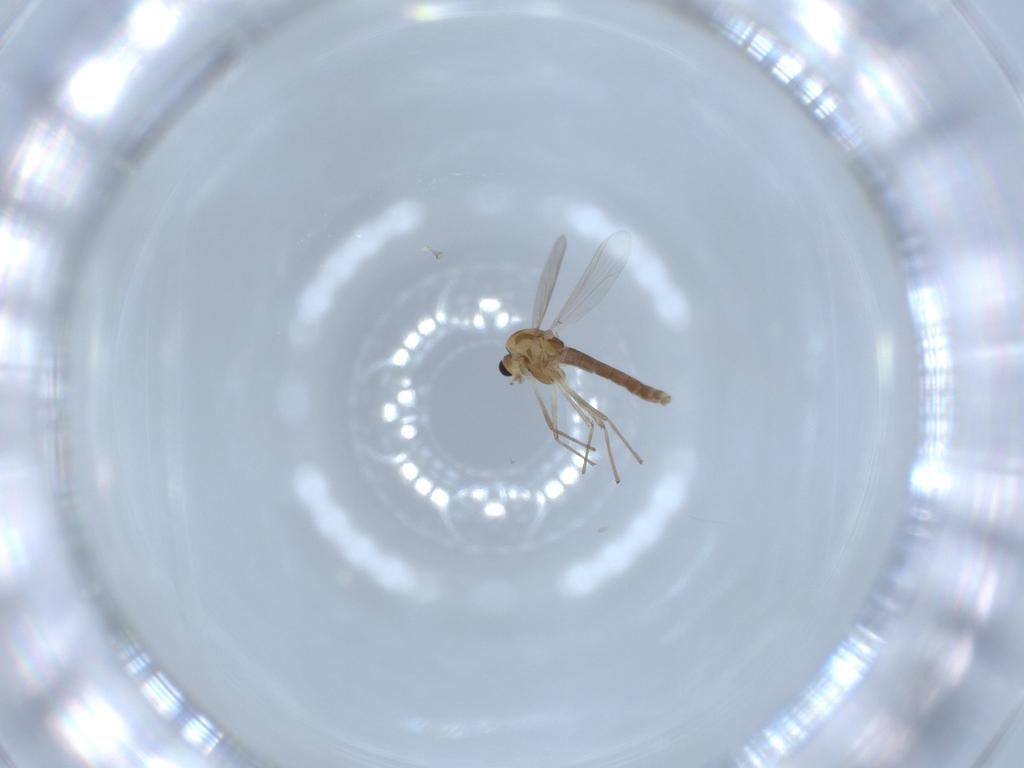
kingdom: Animalia
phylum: Arthropoda
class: Insecta
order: Diptera
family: Chironomidae
